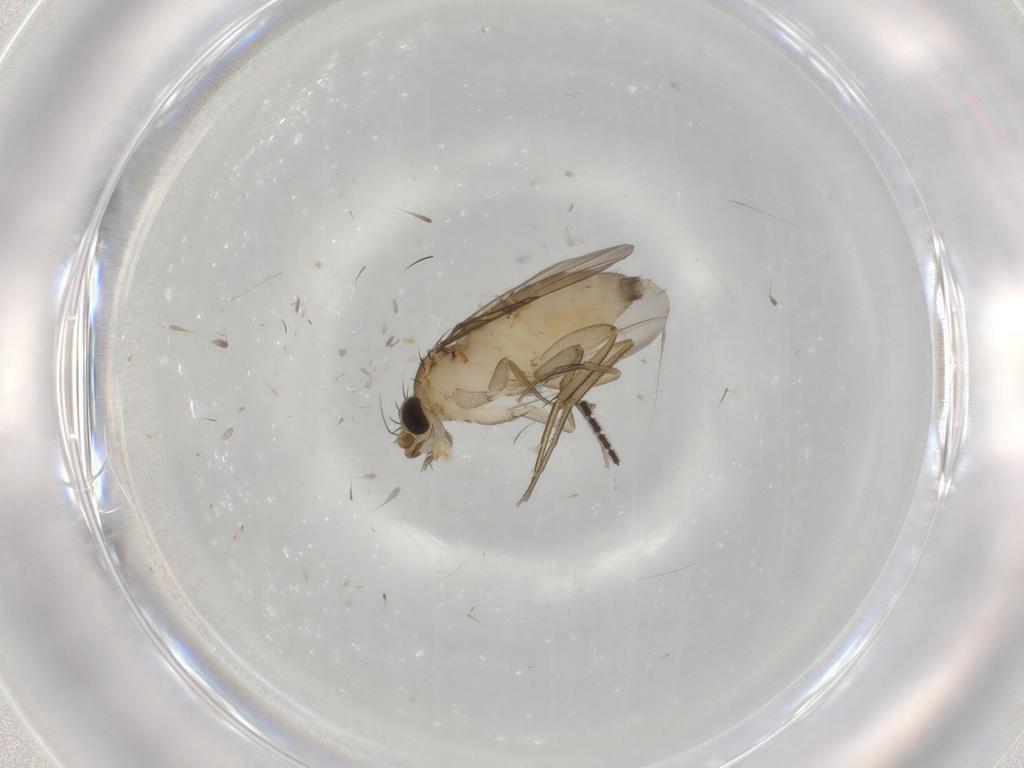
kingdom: Animalia
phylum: Arthropoda
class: Insecta
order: Diptera
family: Phoridae
